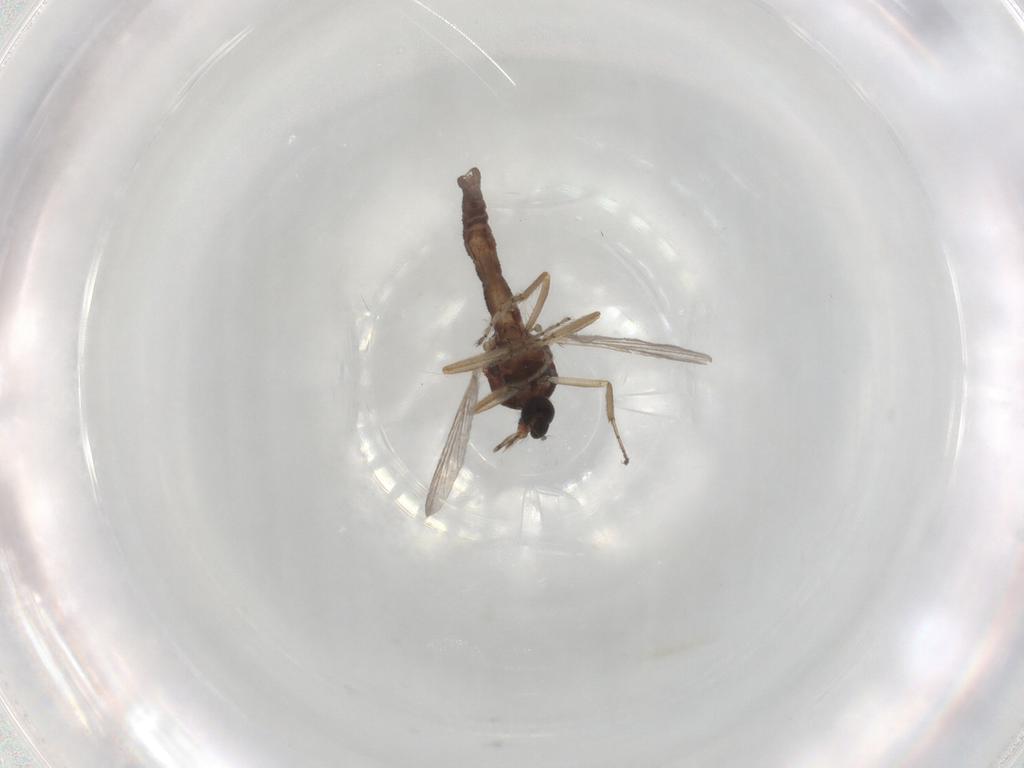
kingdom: Animalia
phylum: Arthropoda
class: Insecta
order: Diptera
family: Ceratopogonidae
